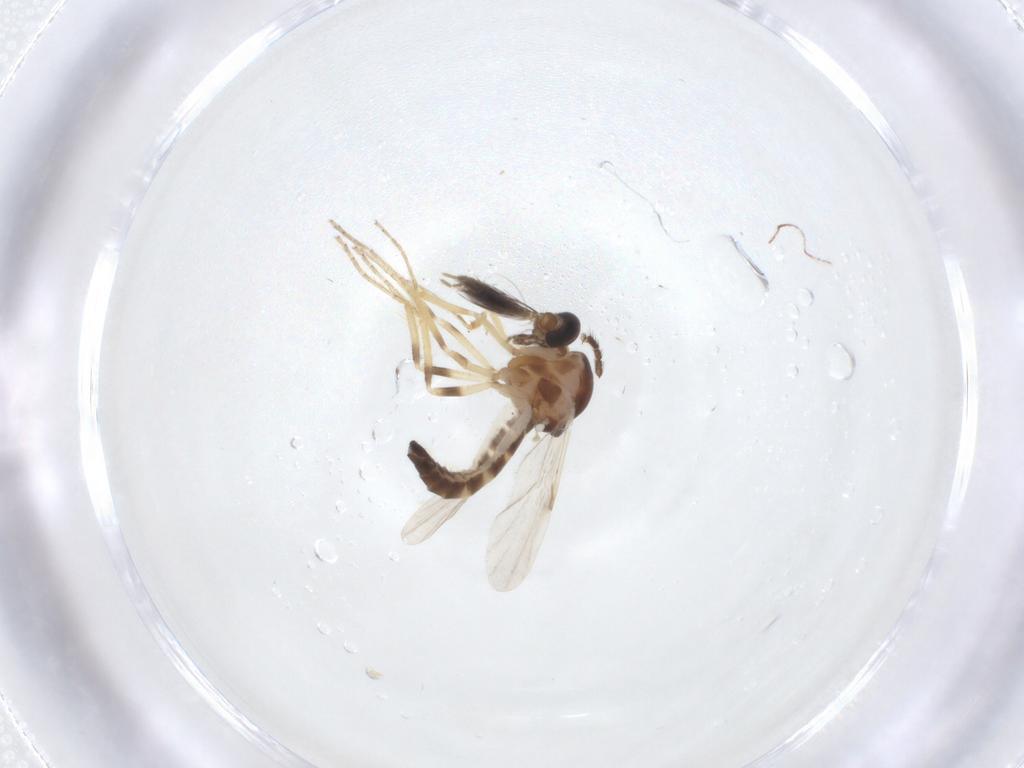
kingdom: Animalia
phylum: Arthropoda
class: Insecta
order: Diptera
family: Ceratopogonidae
